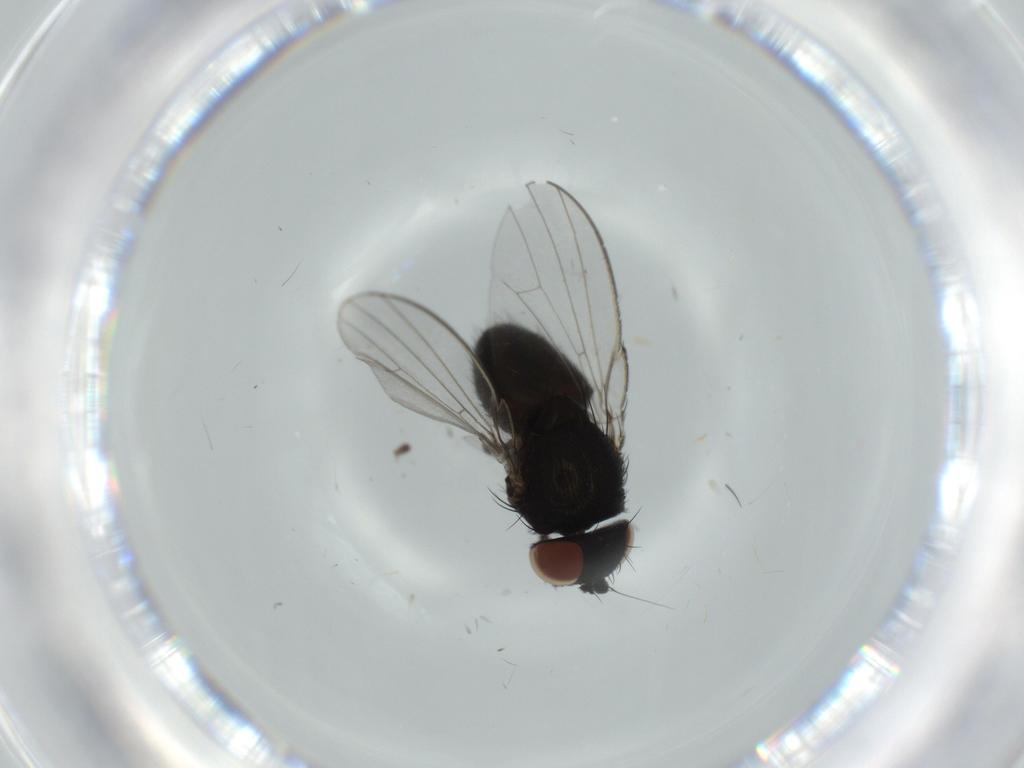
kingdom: Animalia
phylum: Arthropoda
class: Insecta
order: Diptera
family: Milichiidae
